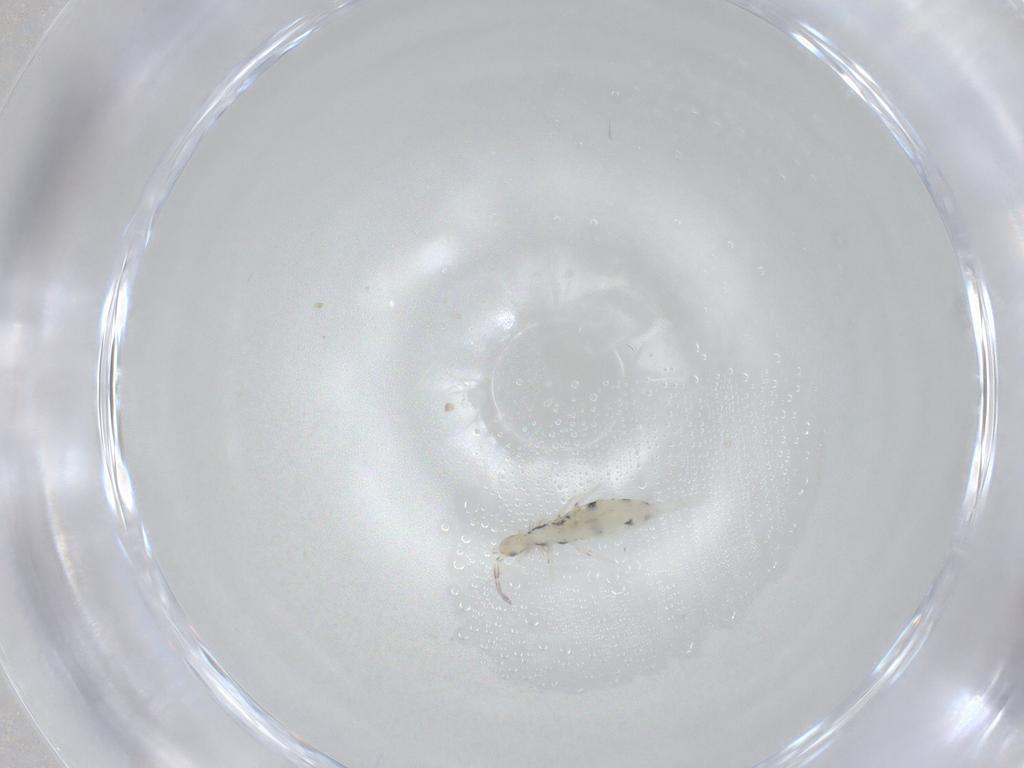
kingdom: Animalia
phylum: Arthropoda
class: Collembola
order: Entomobryomorpha
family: Entomobryidae
